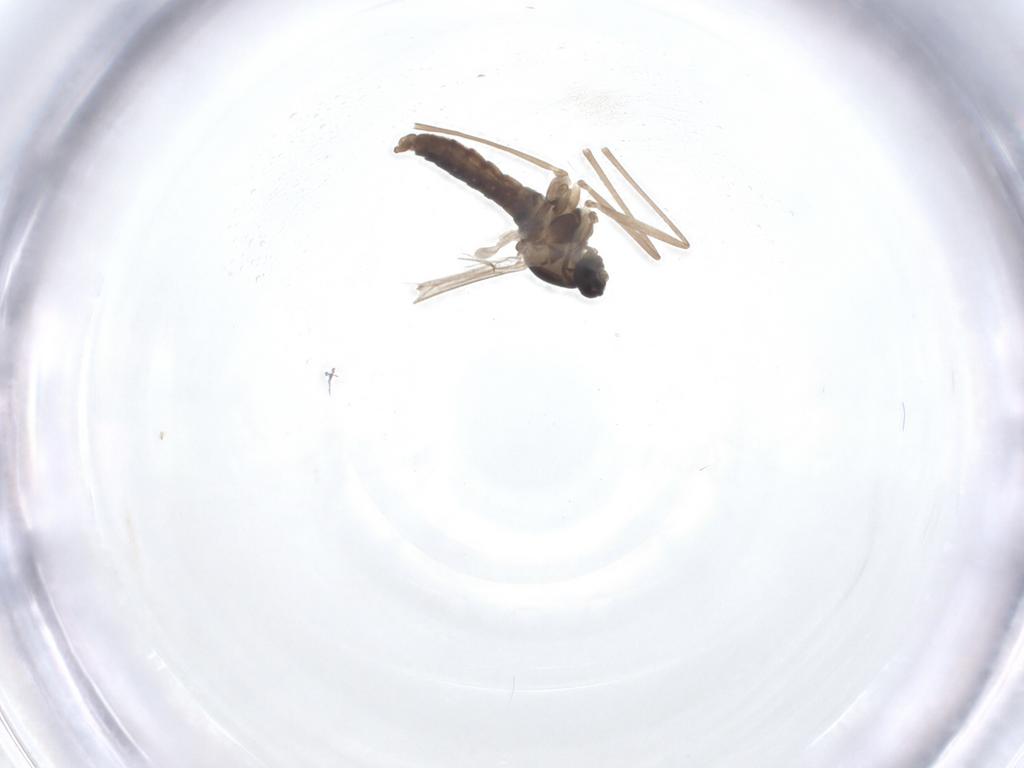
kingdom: Animalia
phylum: Arthropoda
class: Insecta
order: Diptera
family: Cecidomyiidae
